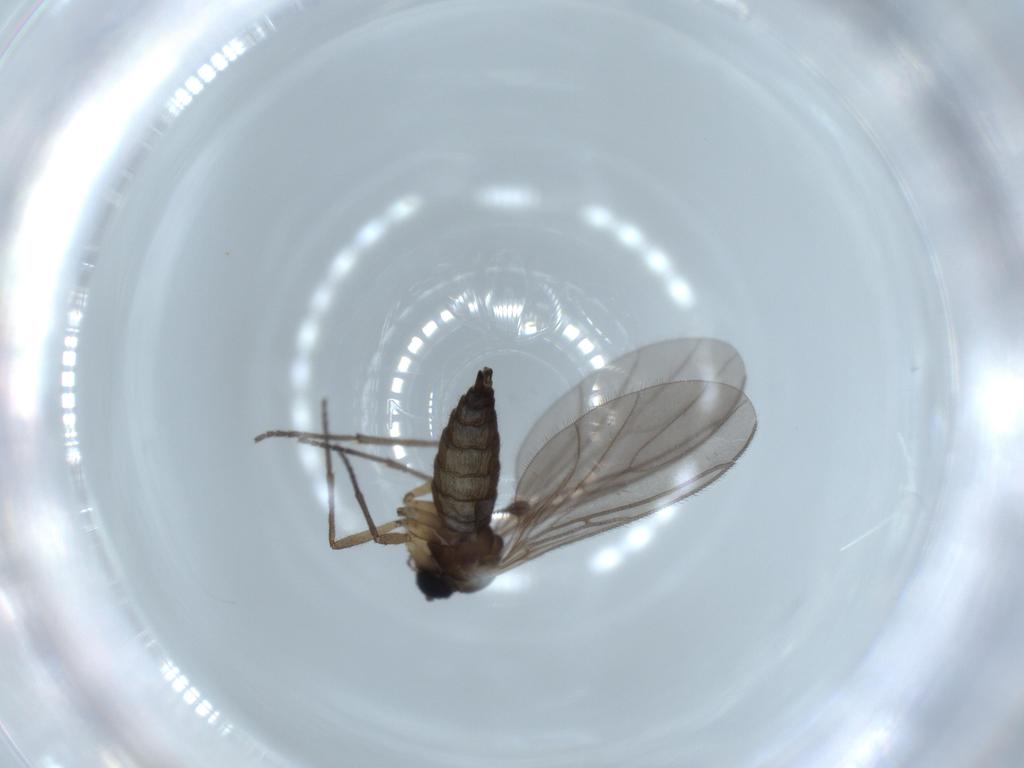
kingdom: Animalia
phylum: Arthropoda
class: Insecta
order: Diptera
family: Sciaridae
